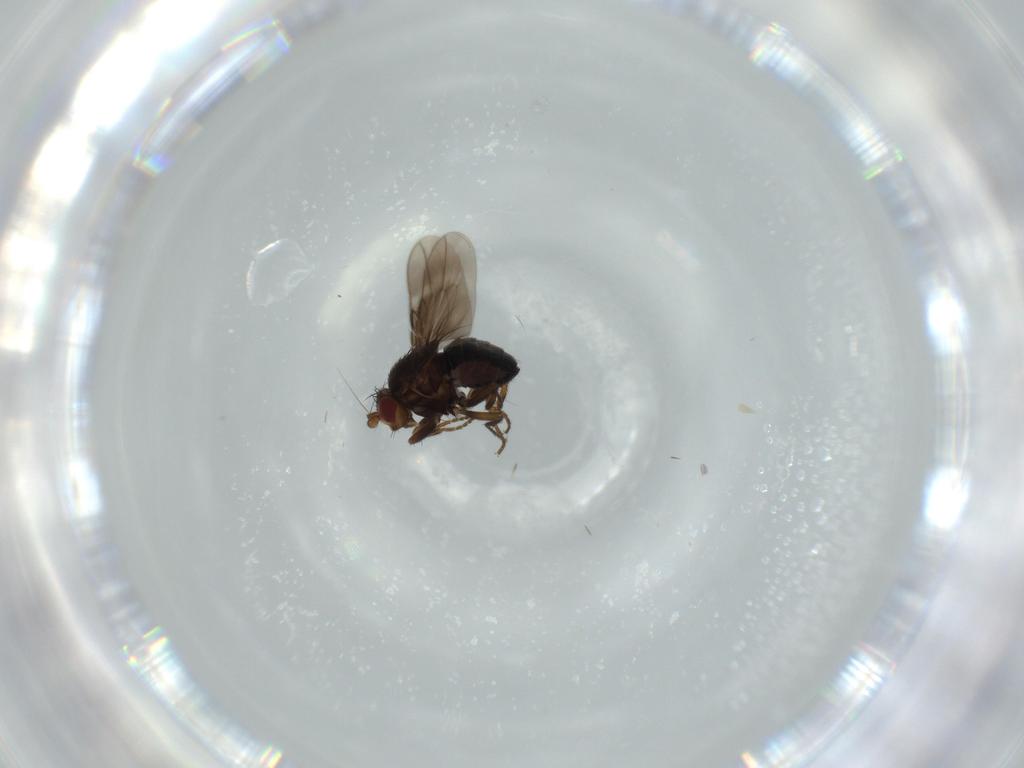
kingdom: Animalia
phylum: Arthropoda
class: Insecta
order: Diptera
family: Sphaeroceridae
